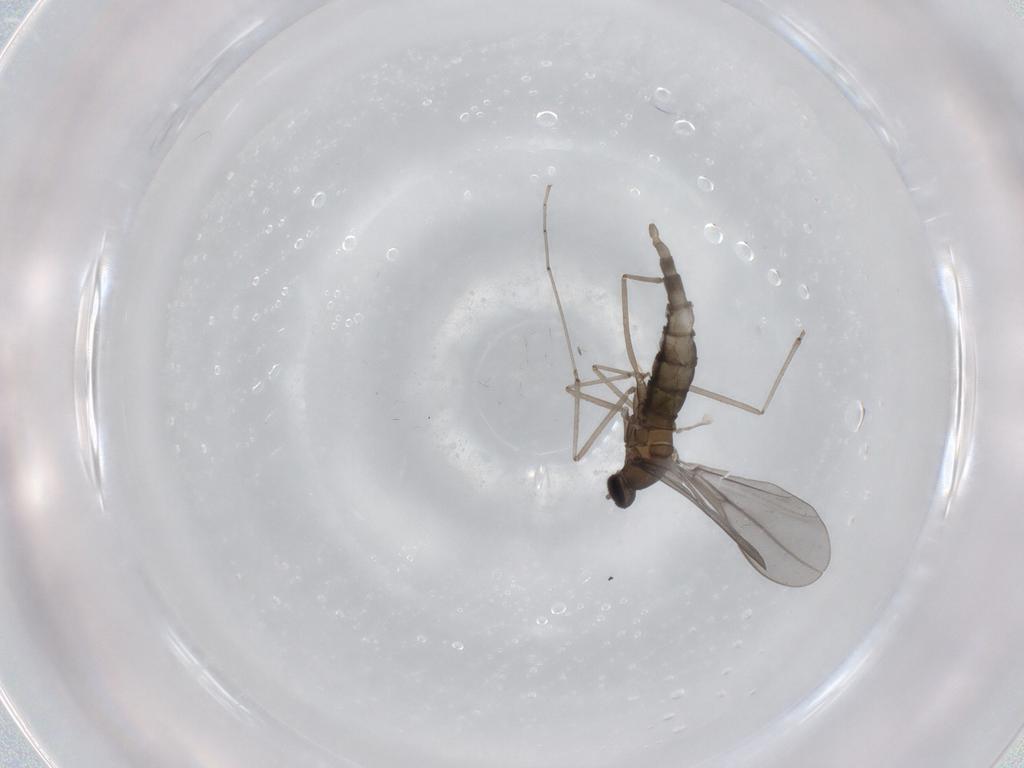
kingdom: Animalia
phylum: Arthropoda
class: Insecta
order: Diptera
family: Cecidomyiidae
